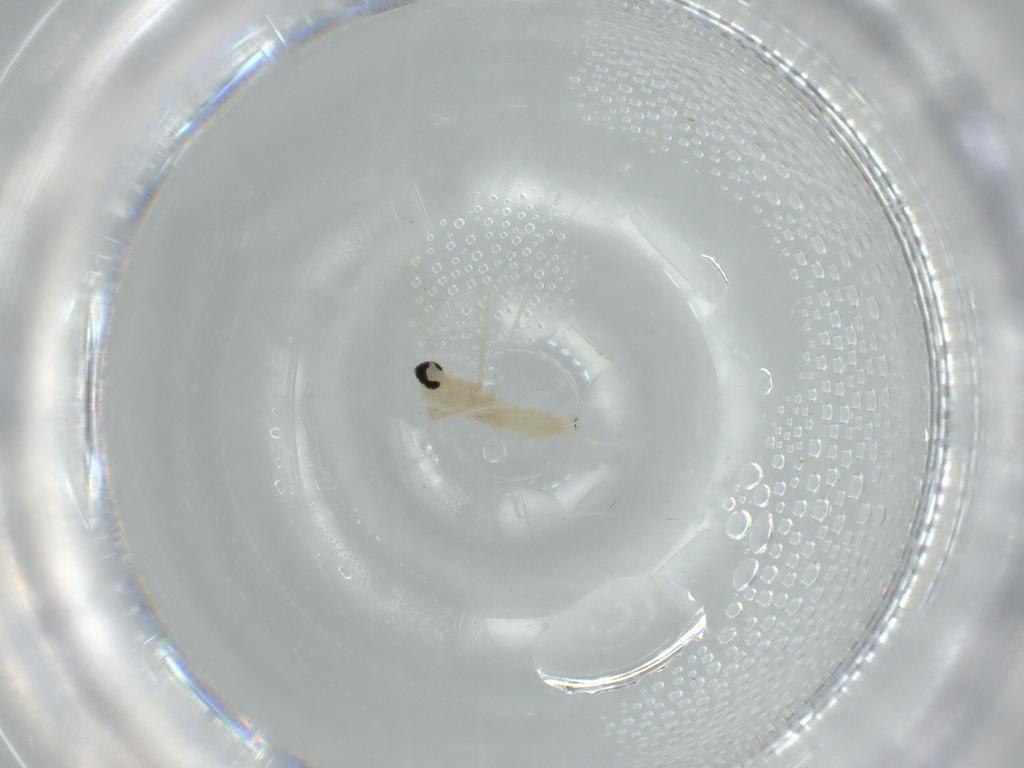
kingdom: Animalia
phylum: Arthropoda
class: Insecta
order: Diptera
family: Cecidomyiidae
